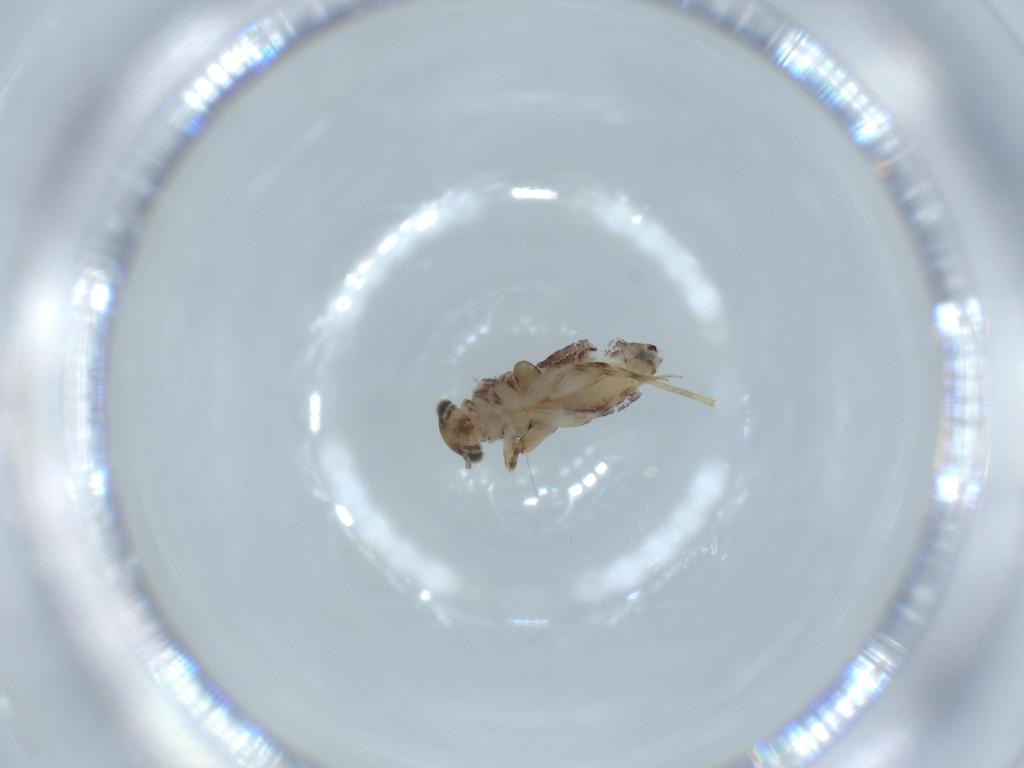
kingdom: Animalia
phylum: Arthropoda
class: Insecta
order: Psocodea
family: Lepidopsocidae
